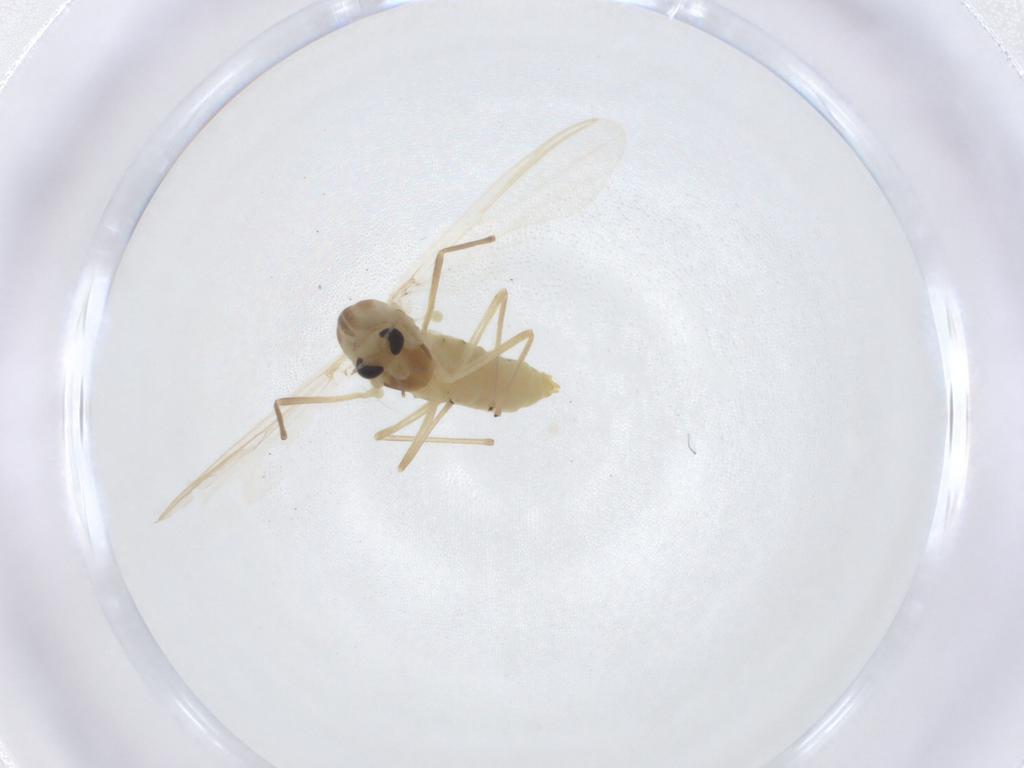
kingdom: Animalia
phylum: Arthropoda
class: Insecta
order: Diptera
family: Chironomidae
